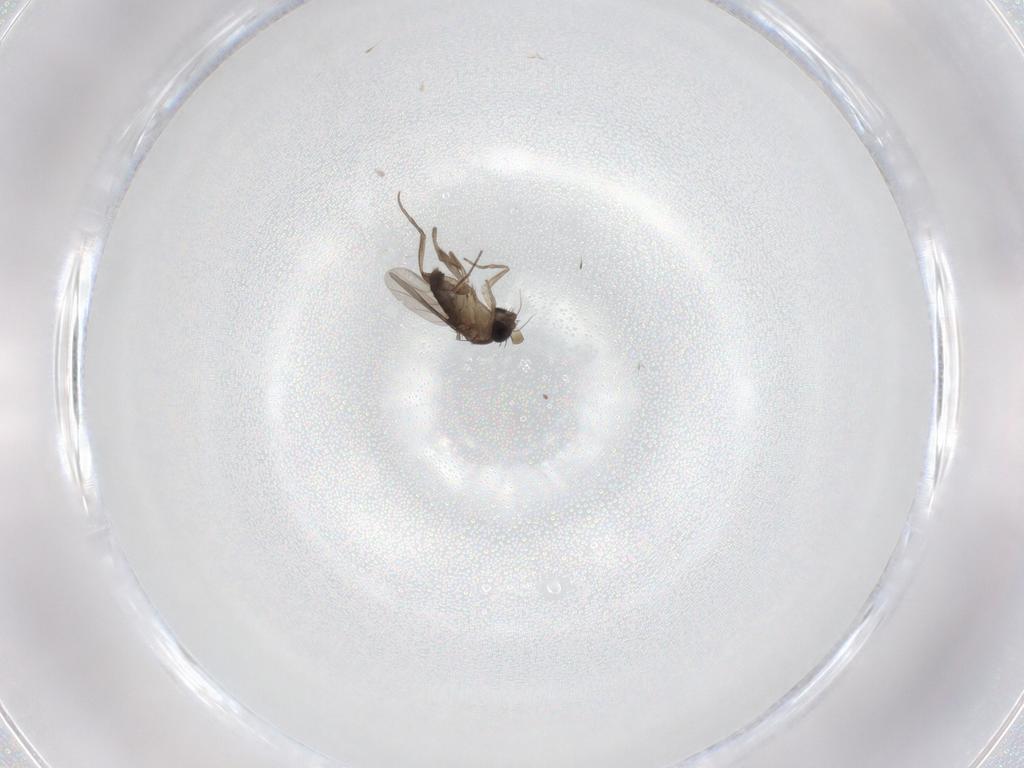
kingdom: Animalia
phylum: Arthropoda
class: Insecta
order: Diptera
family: Phoridae
